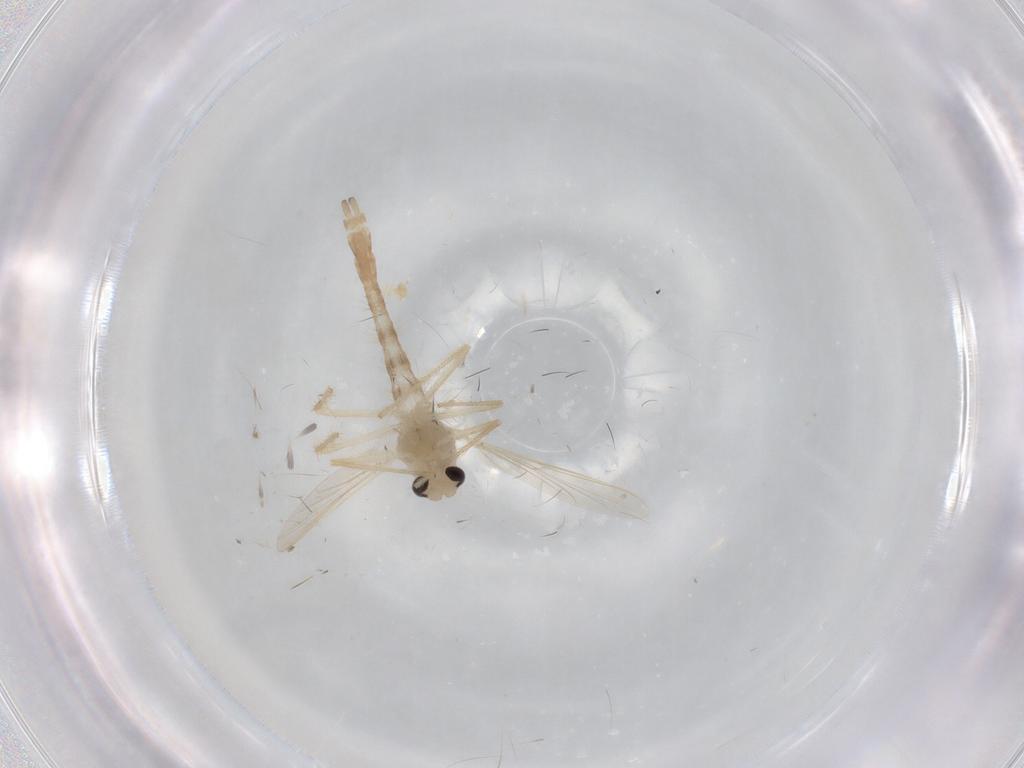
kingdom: Animalia
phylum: Arthropoda
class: Insecta
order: Diptera
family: Chironomidae
